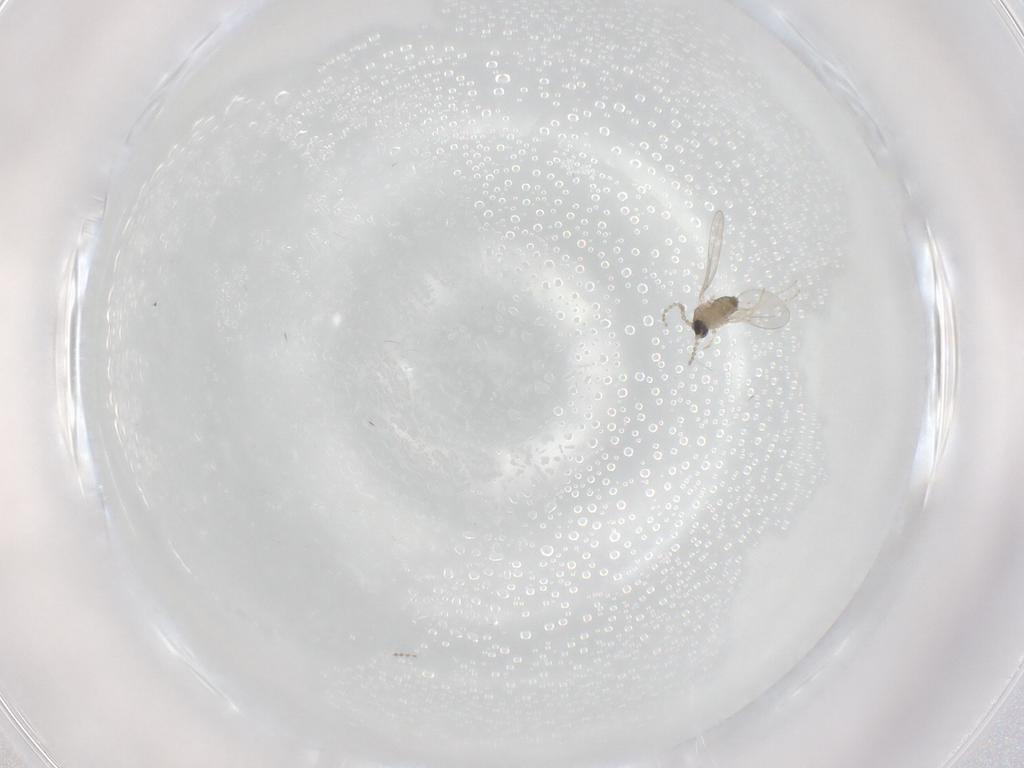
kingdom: Animalia
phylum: Arthropoda
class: Insecta
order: Diptera
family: Cecidomyiidae
